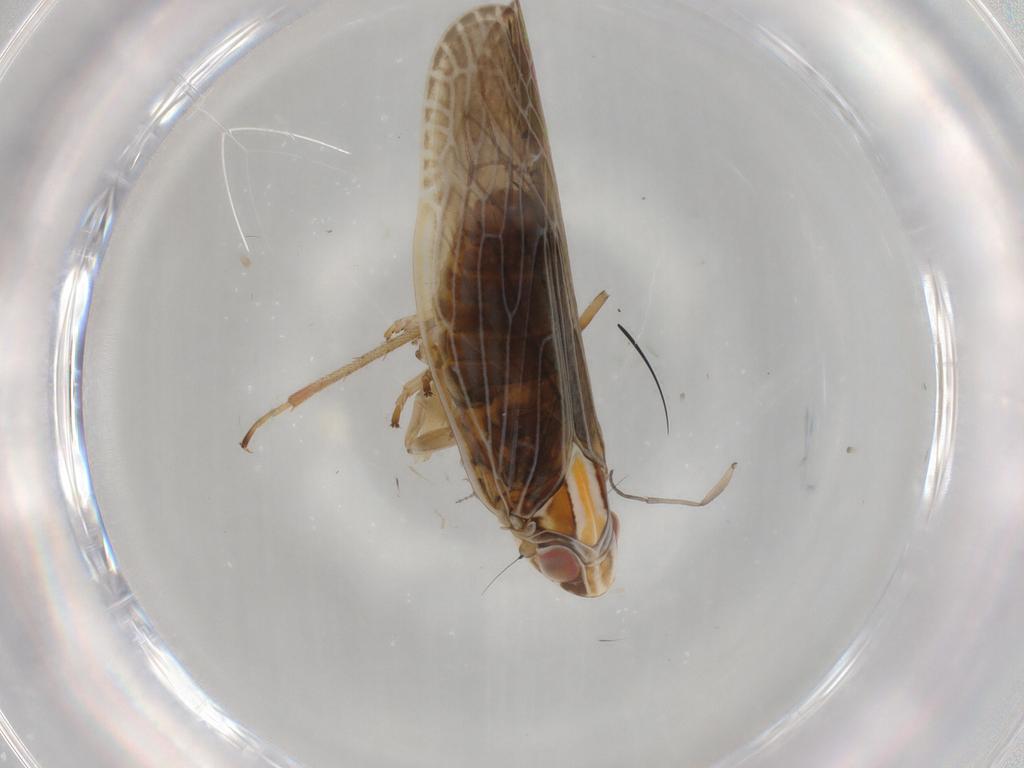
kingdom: Animalia
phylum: Arthropoda
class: Insecta
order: Hemiptera
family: Achilidae
